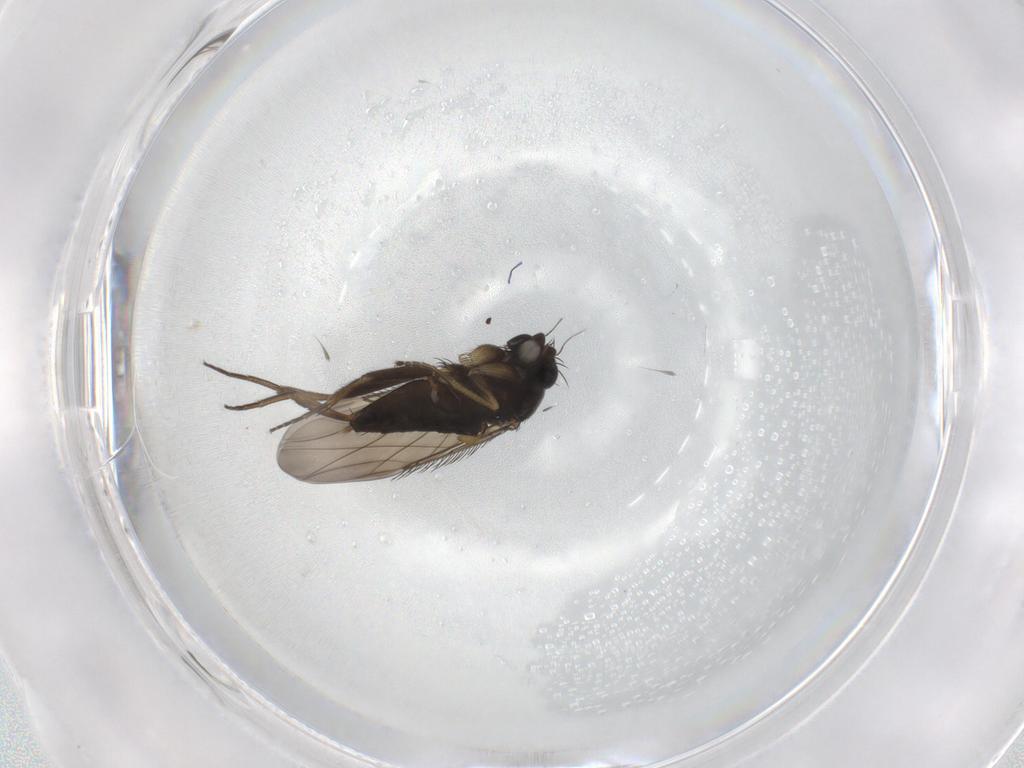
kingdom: Animalia
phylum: Arthropoda
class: Insecta
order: Diptera
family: Phoridae
